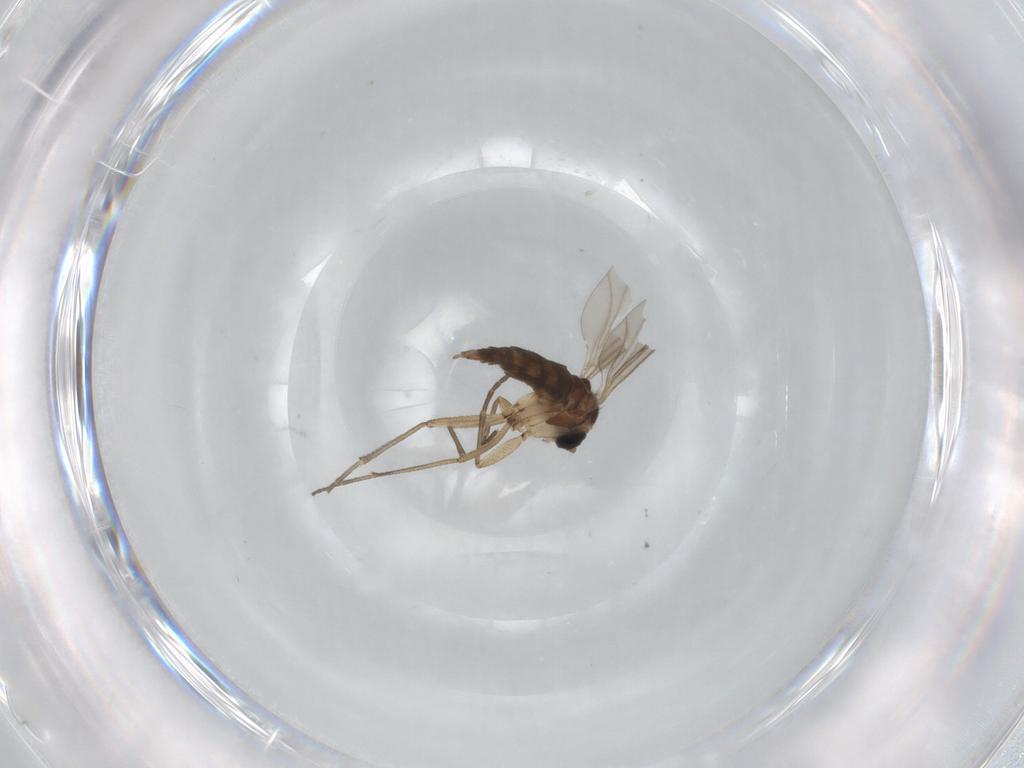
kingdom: Animalia
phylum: Arthropoda
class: Insecta
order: Diptera
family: Sciaridae
